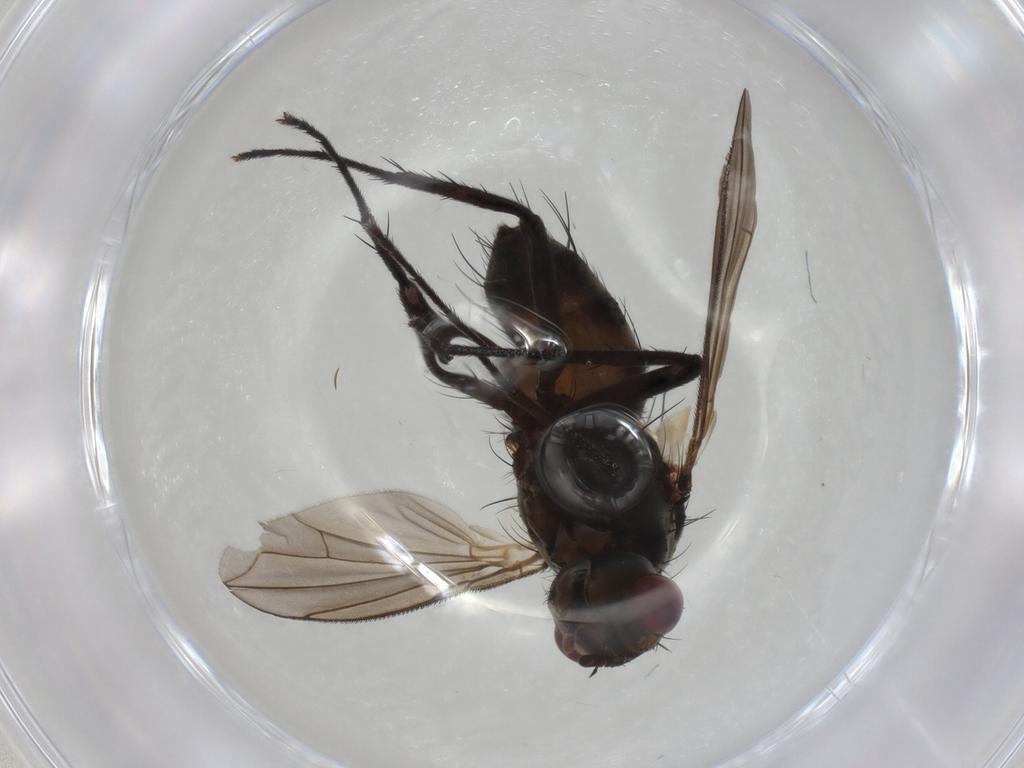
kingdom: Animalia
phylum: Arthropoda
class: Insecta
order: Diptera
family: Tachinidae
